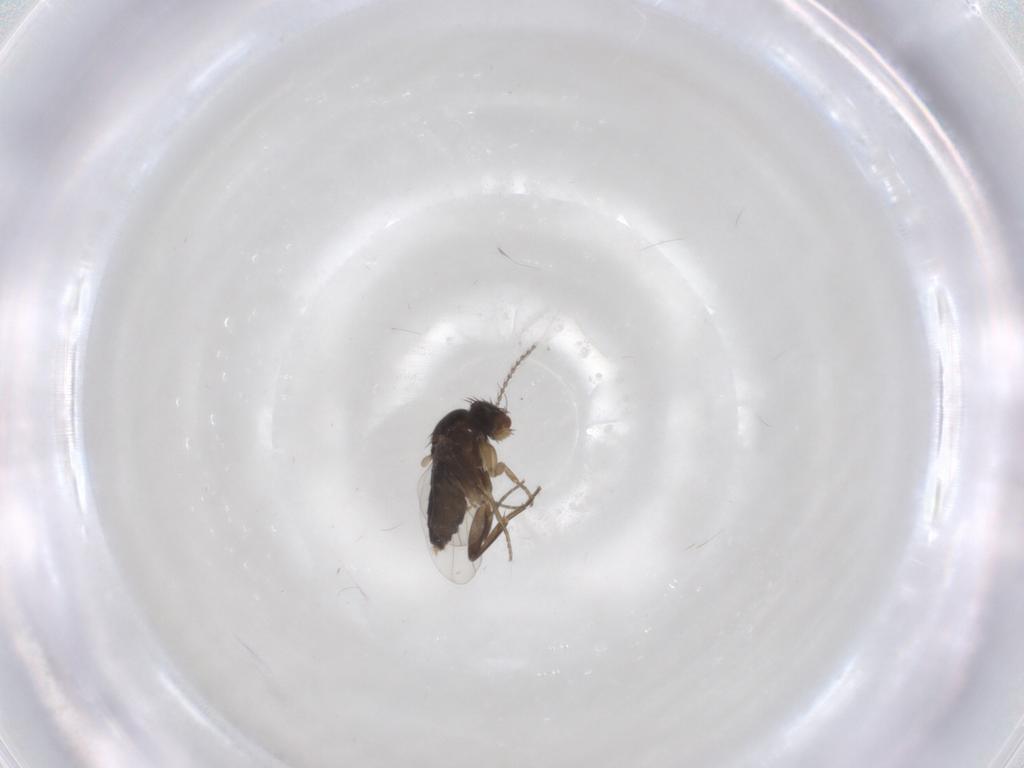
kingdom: Animalia
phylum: Arthropoda
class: Insecta
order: Diptera
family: Phoridae
